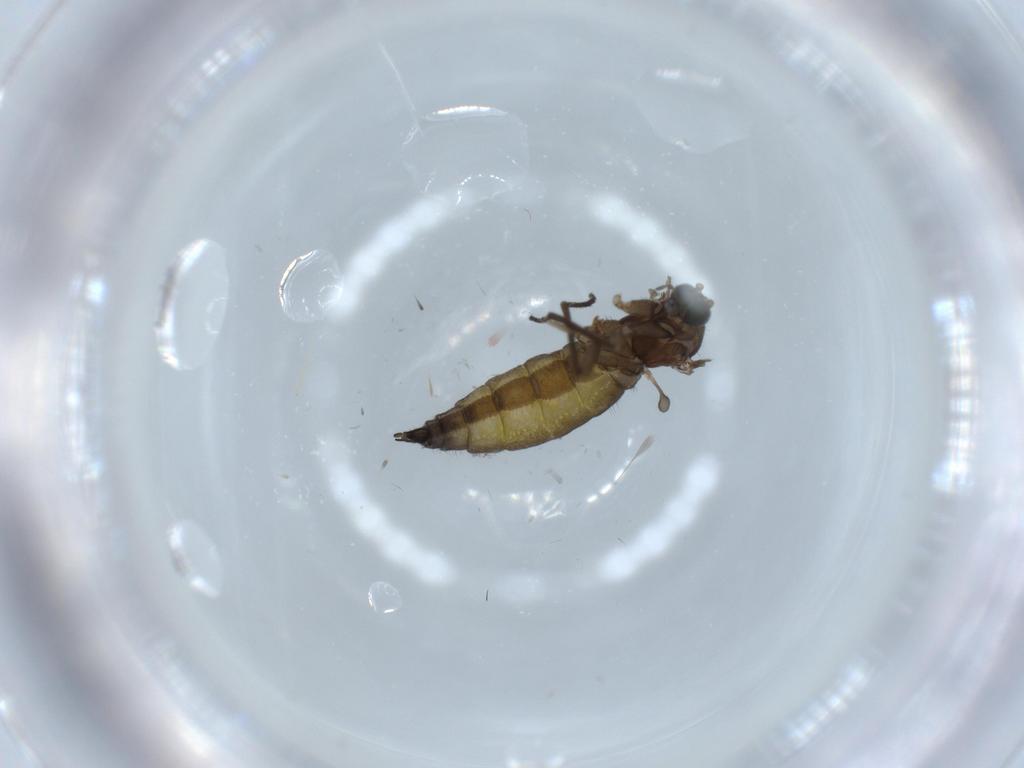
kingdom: Animalia
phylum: Arthropoda
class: Insecta
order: Diptera
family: Sciaridae
